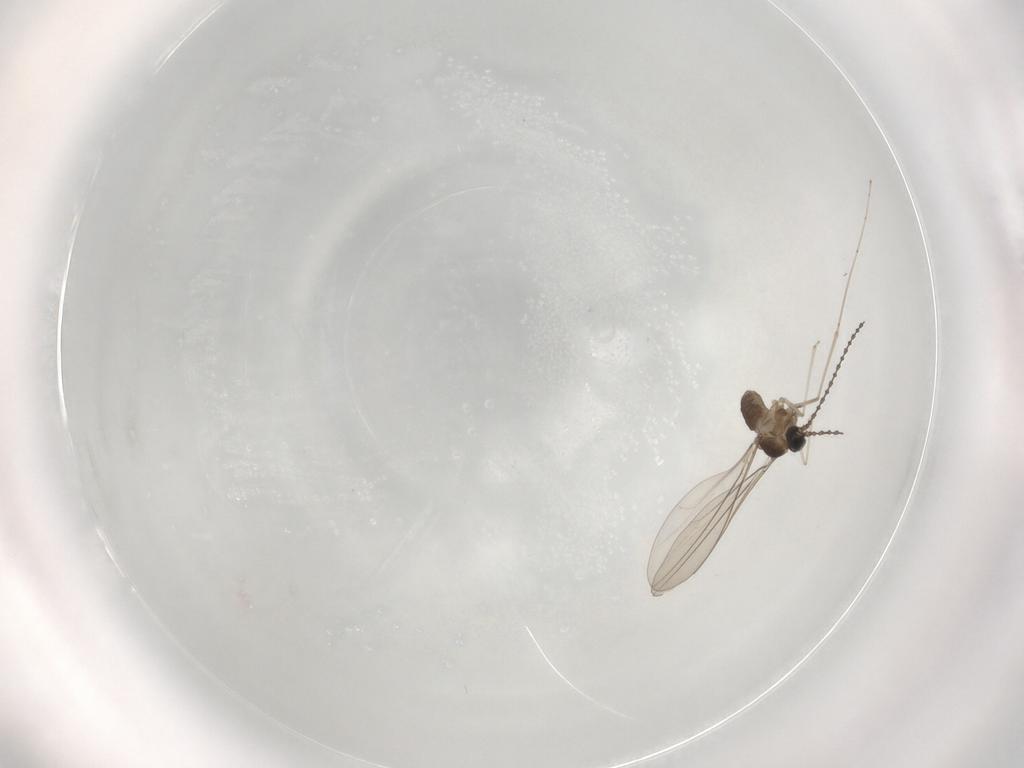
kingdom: Animalia
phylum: Arthropoda
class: Insecta
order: Diptera
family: Cecidomyiidae
